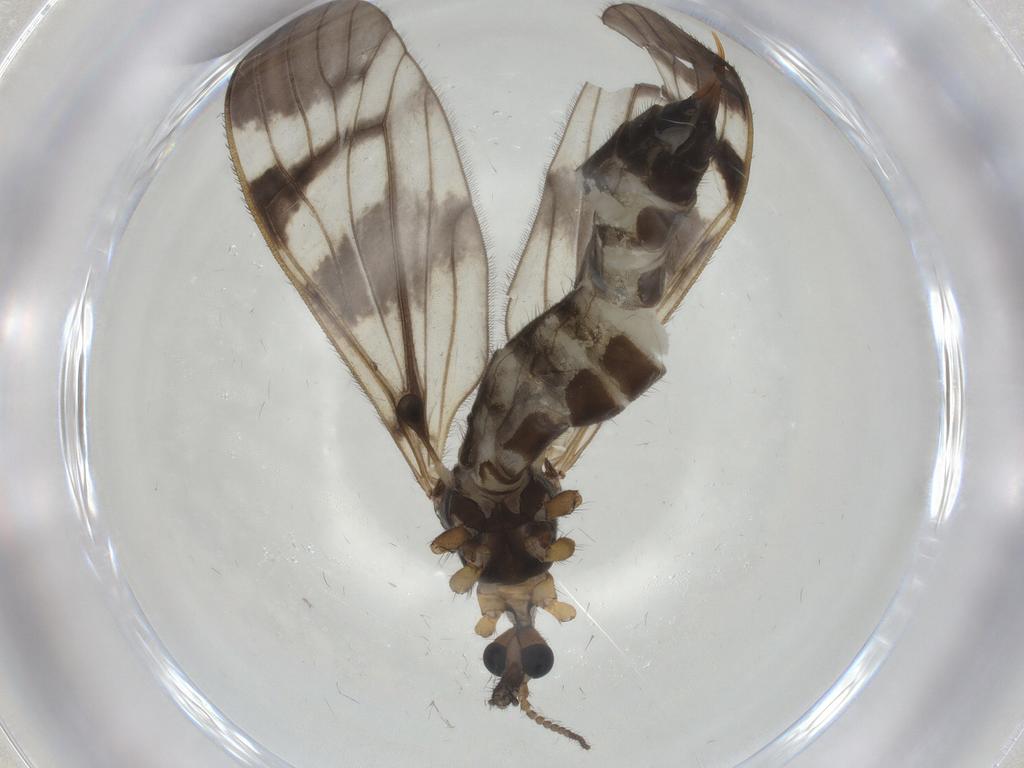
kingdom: Animalia
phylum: Arthropoda
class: Insecta
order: Diptera
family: Limoniidae
